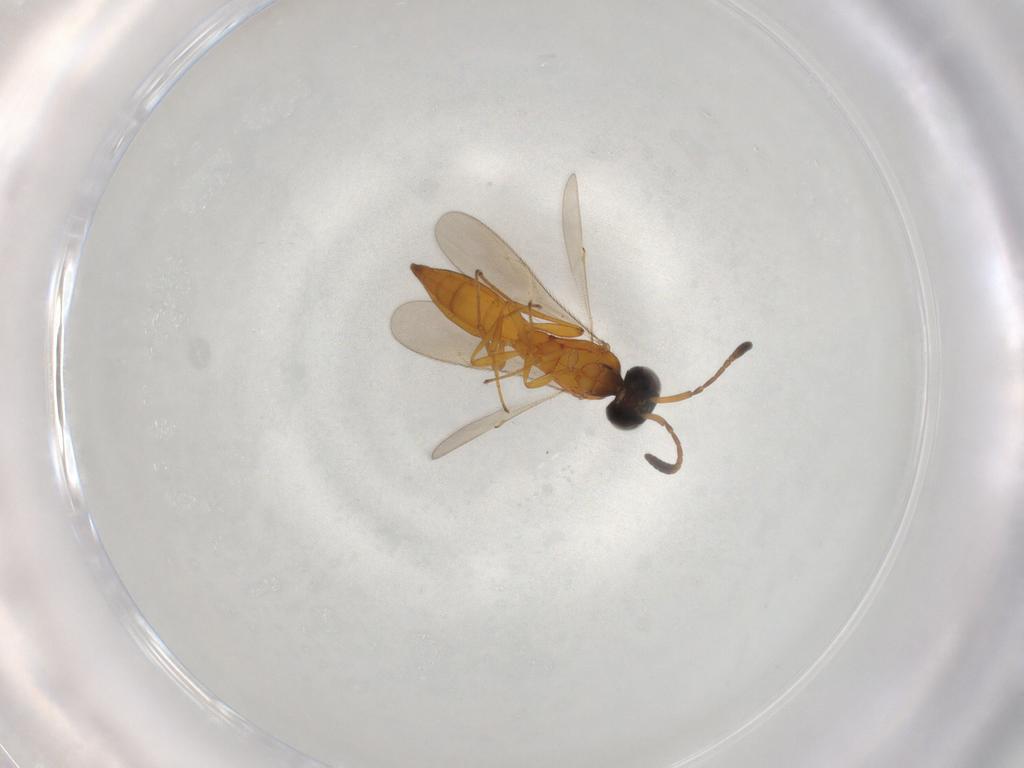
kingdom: Animalia
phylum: Arthropoda
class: Insecta
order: Hymenoptera
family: Scelionidae
